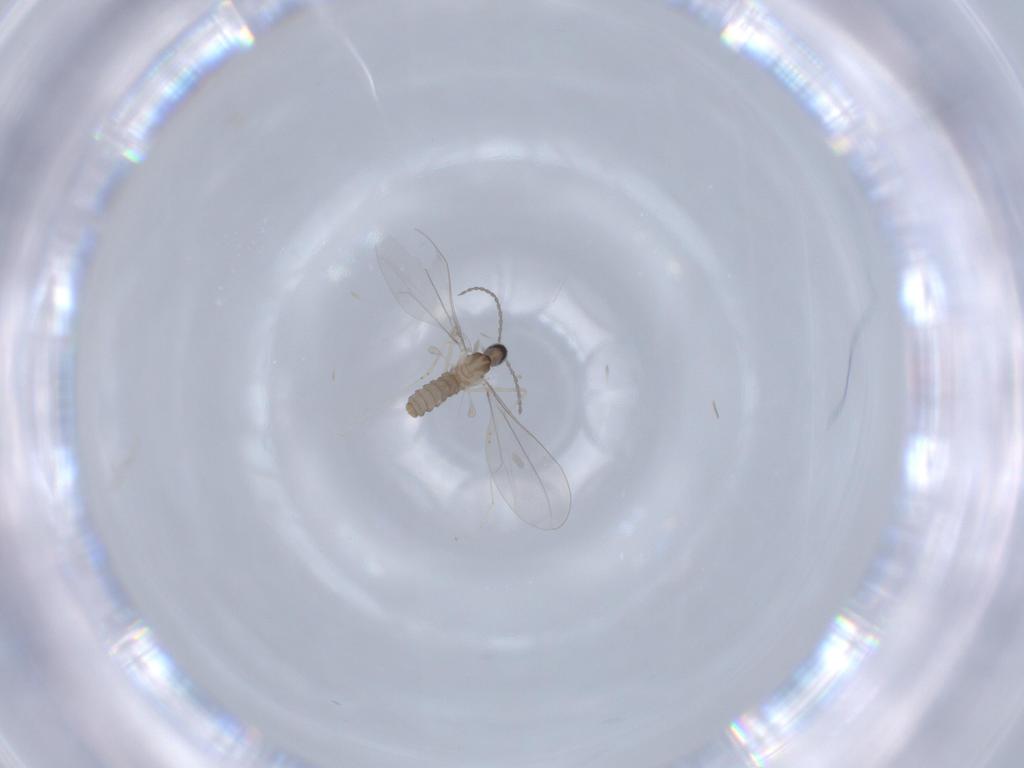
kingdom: Animalia
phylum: Arthropoda
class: Insecta
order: Diptera
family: Cecidomyiidae
